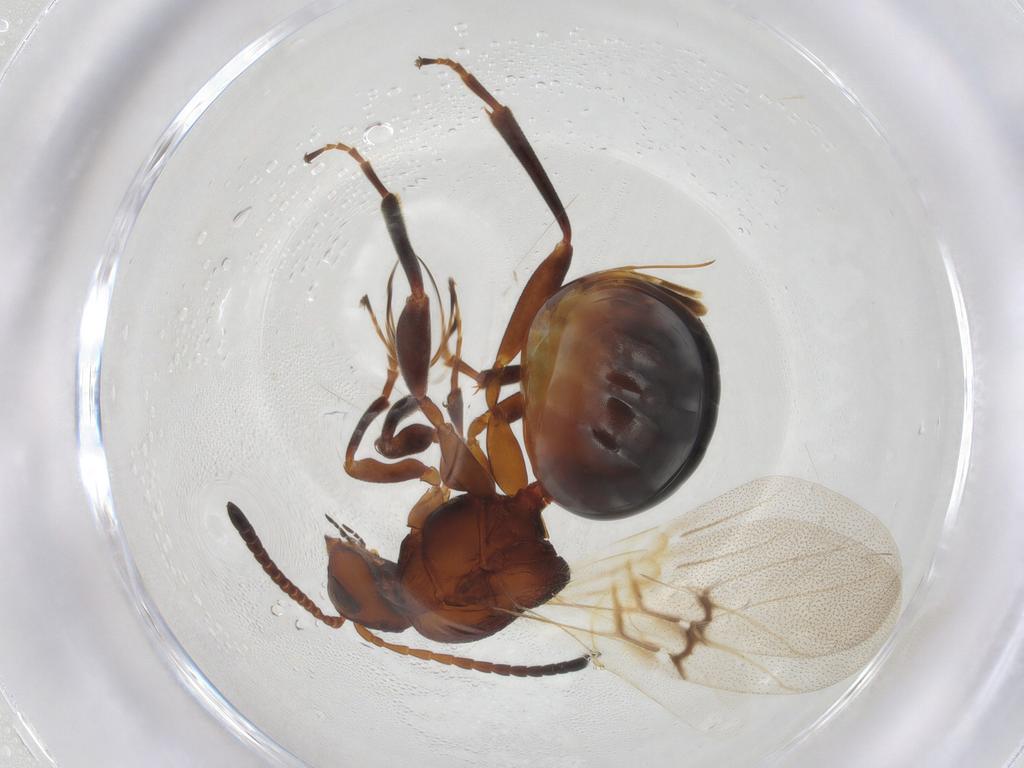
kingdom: Animalia
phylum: Arthropoda
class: Insecta
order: Hymenoptera
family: Cynipidae
